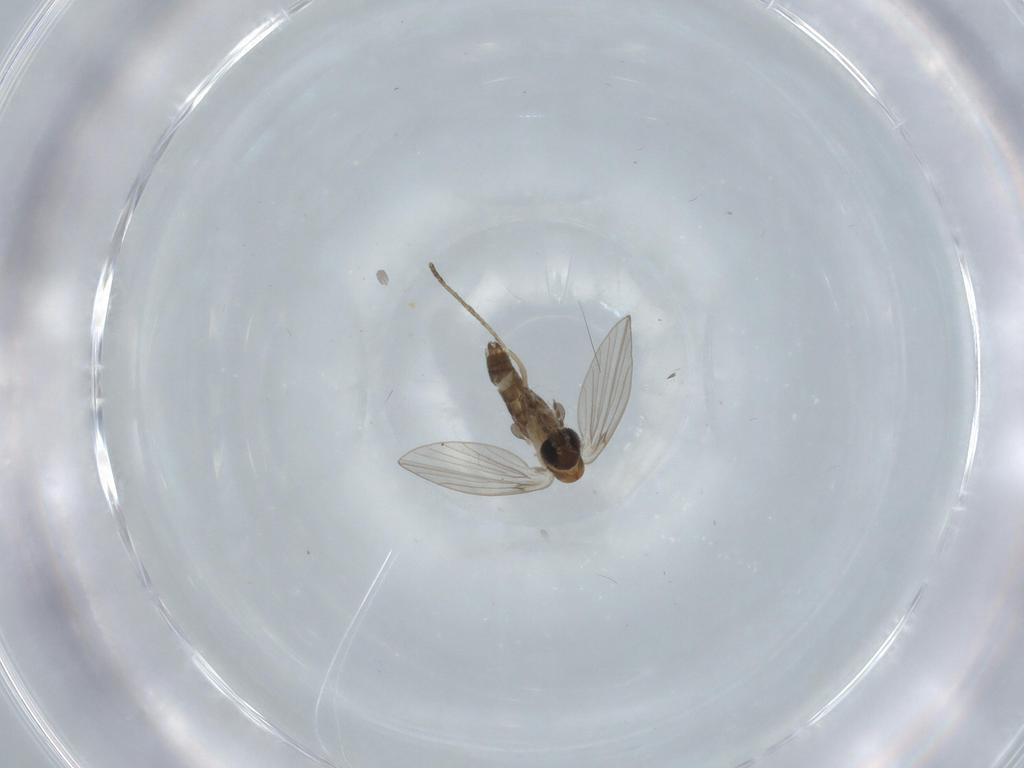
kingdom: Animalia
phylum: Arthropoda
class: Insecta
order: Diptera
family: Psychodidae
